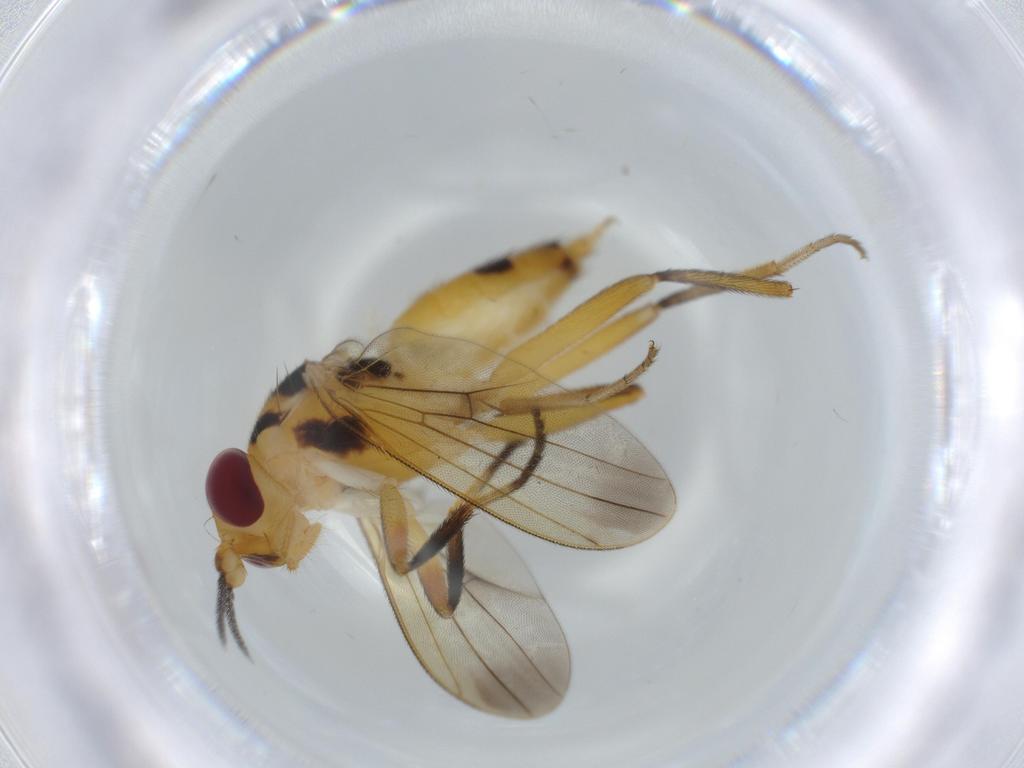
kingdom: Animalia
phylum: Arthropoda
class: Insecta
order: Diptera
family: Clusiidae
